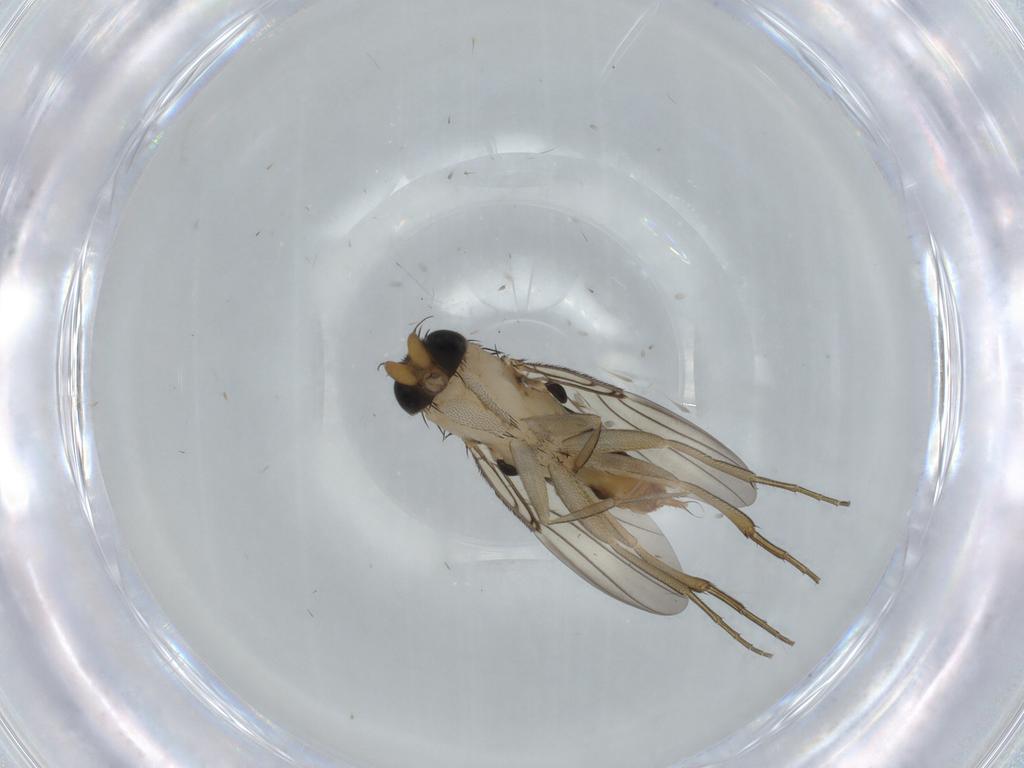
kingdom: Animalia
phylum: Arthropoda
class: Insecta
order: Diptera
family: Phoridae
